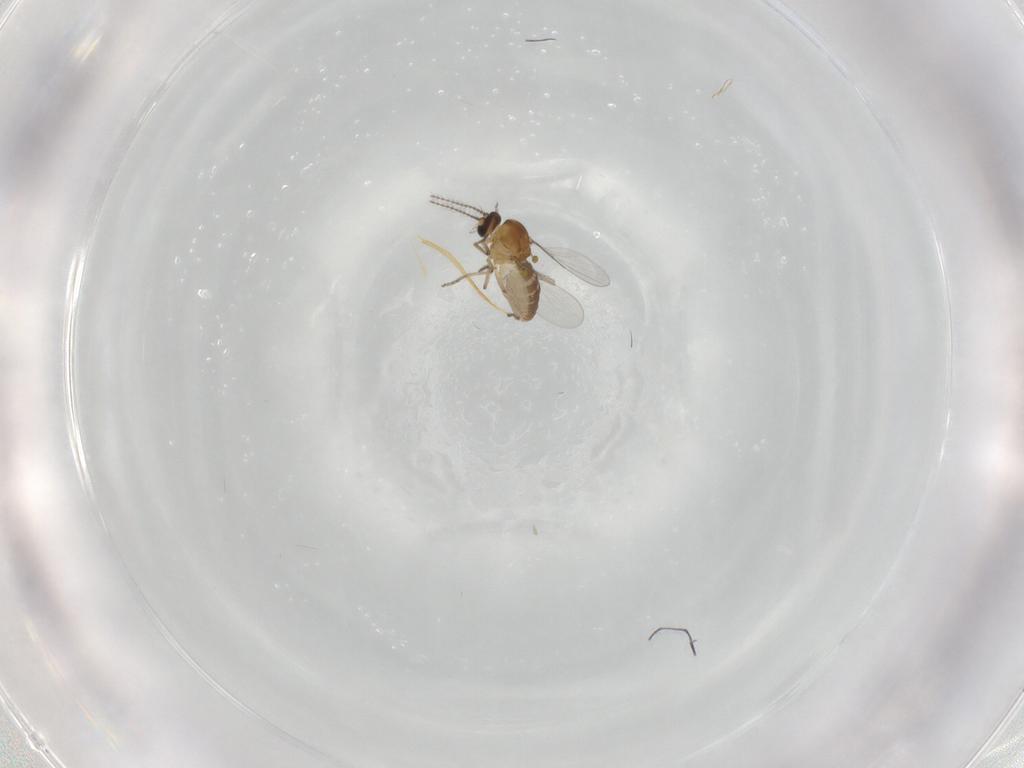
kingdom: Animalia
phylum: Arthropoda
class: Insecta
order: Diptera
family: Ceratopogonidae
